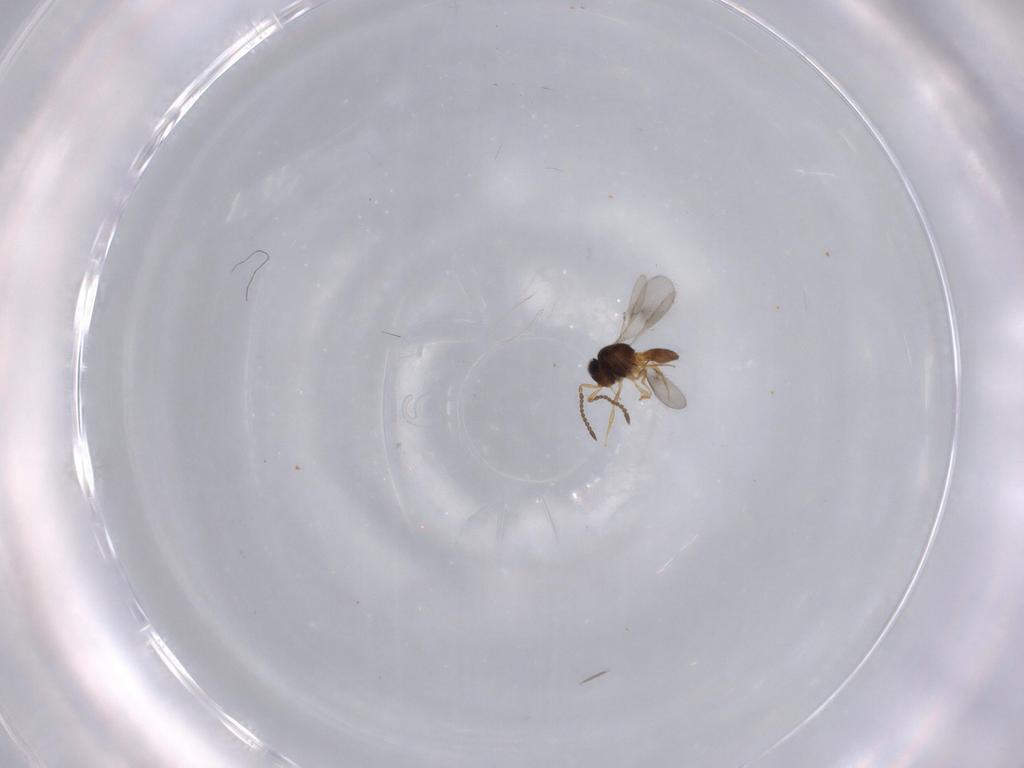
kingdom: Animalia
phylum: Arthropoda
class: Insecta
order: Hymenoptera
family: Scelionidae
